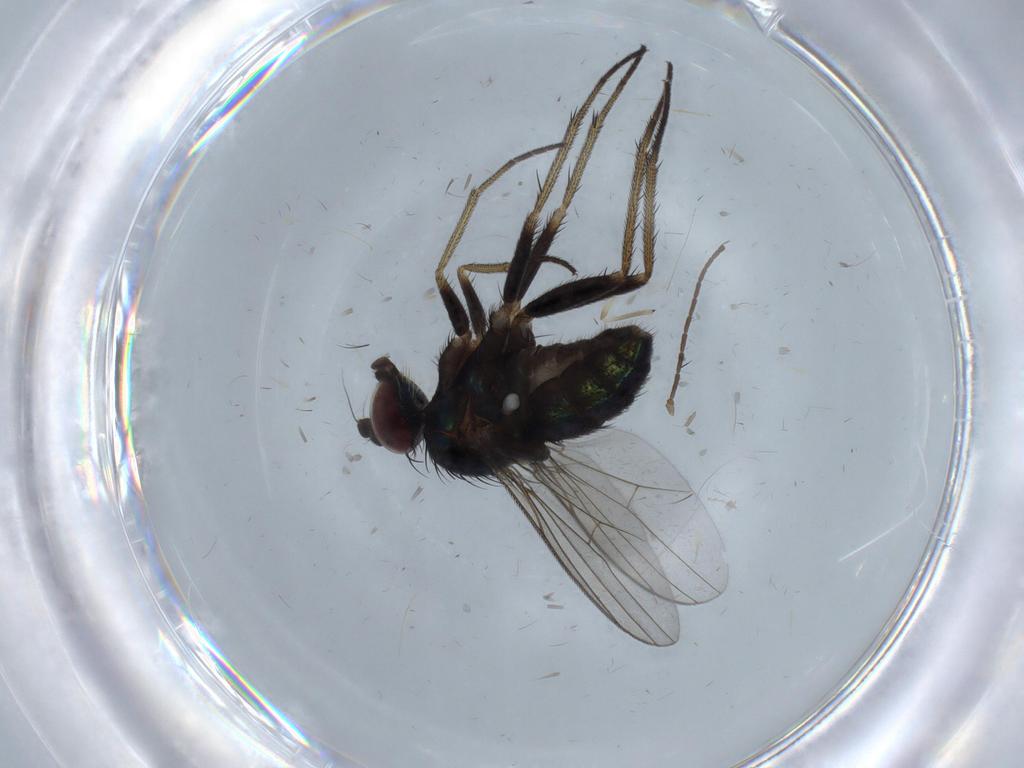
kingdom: Animalia
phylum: Arthropoda
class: Insecta
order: Diptera
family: Dolichopodidae
